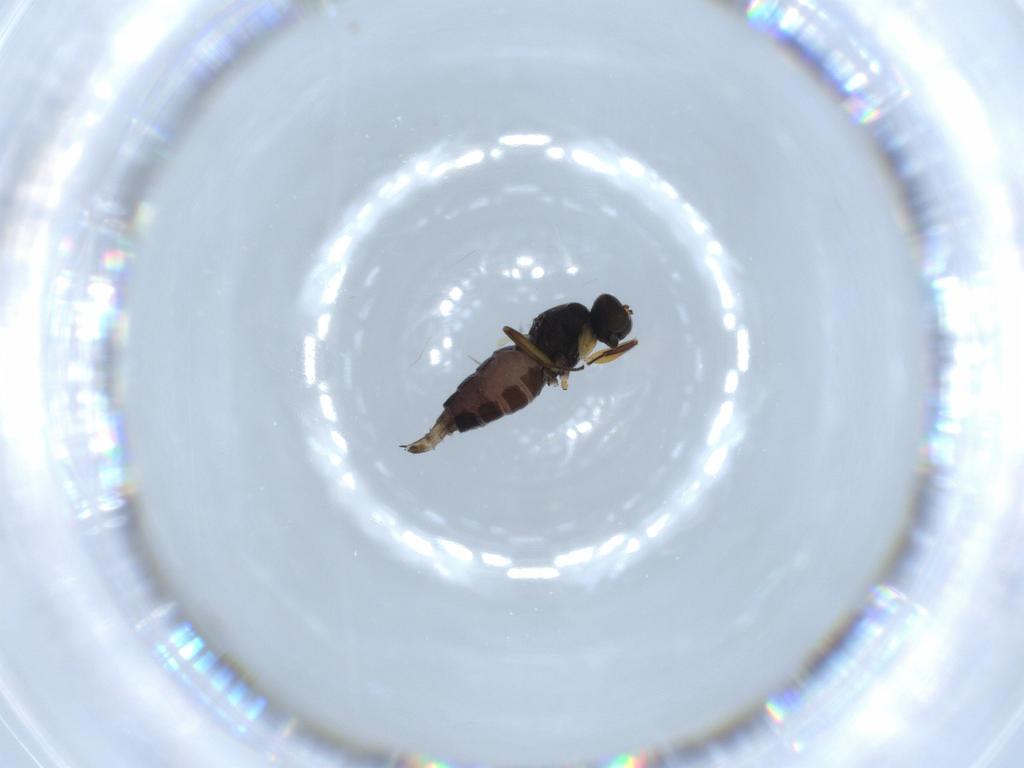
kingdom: Animalia
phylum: Arthropoda
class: Insecta
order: Diptera
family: Hybotidae
